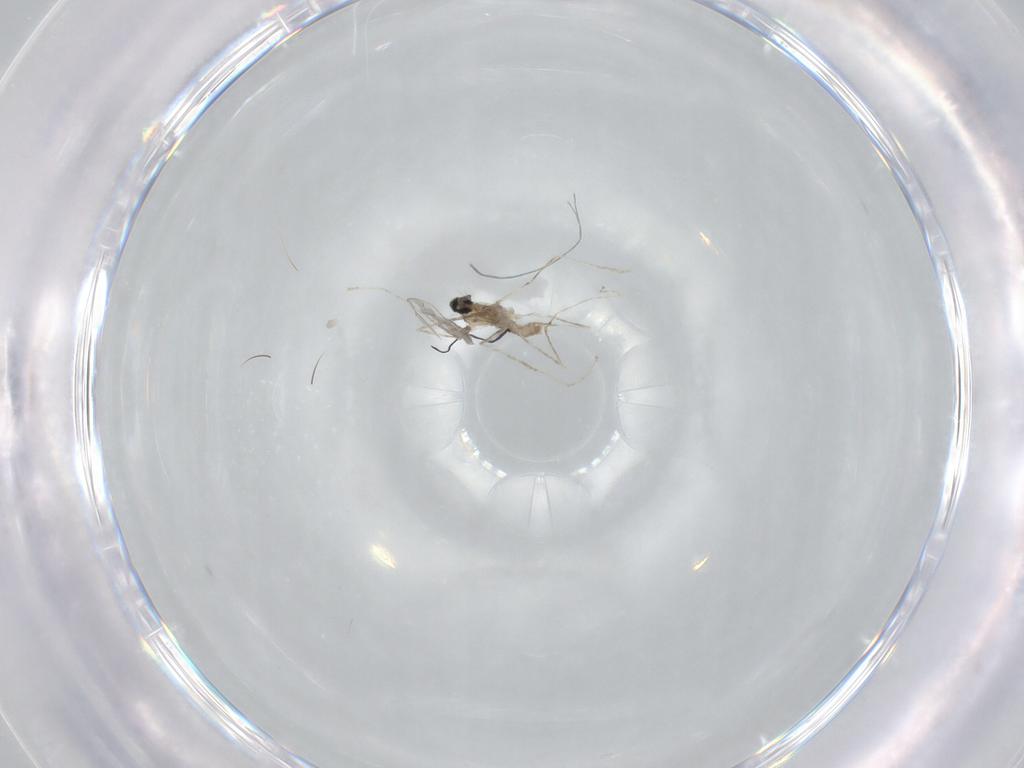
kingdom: Animalia
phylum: Arthropoda
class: Insecta
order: Diptera
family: Cecidomyiidae
